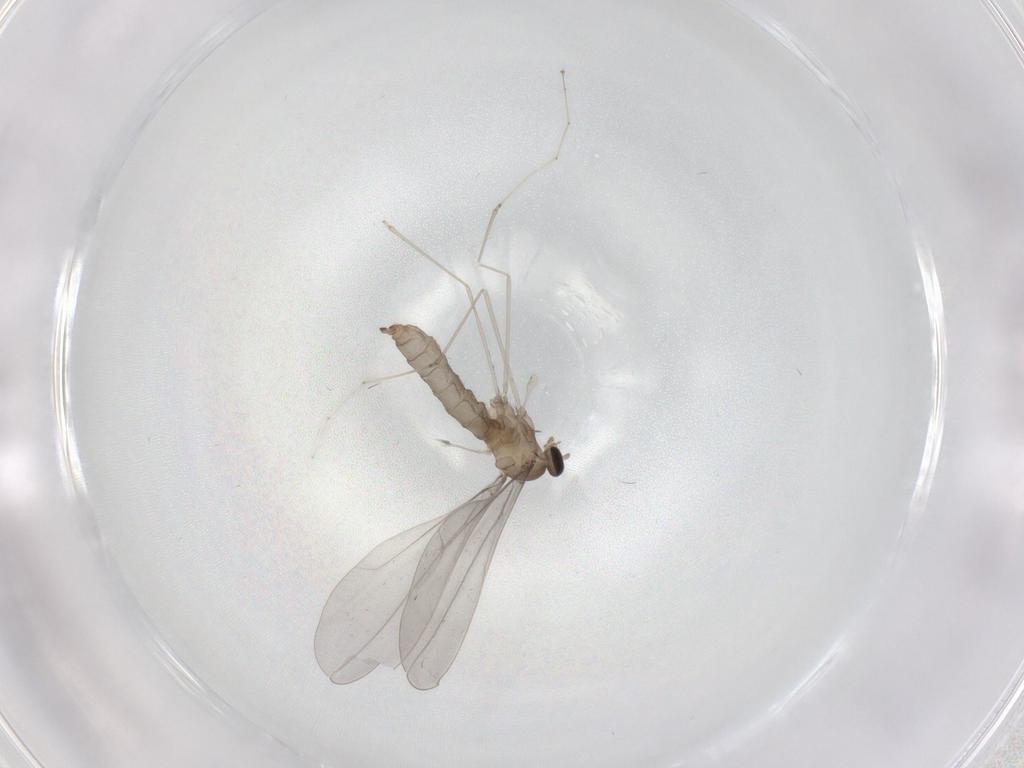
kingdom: Animalia
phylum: Arthropoda
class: Insecta
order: Diptera
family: Cecidomyiidae
